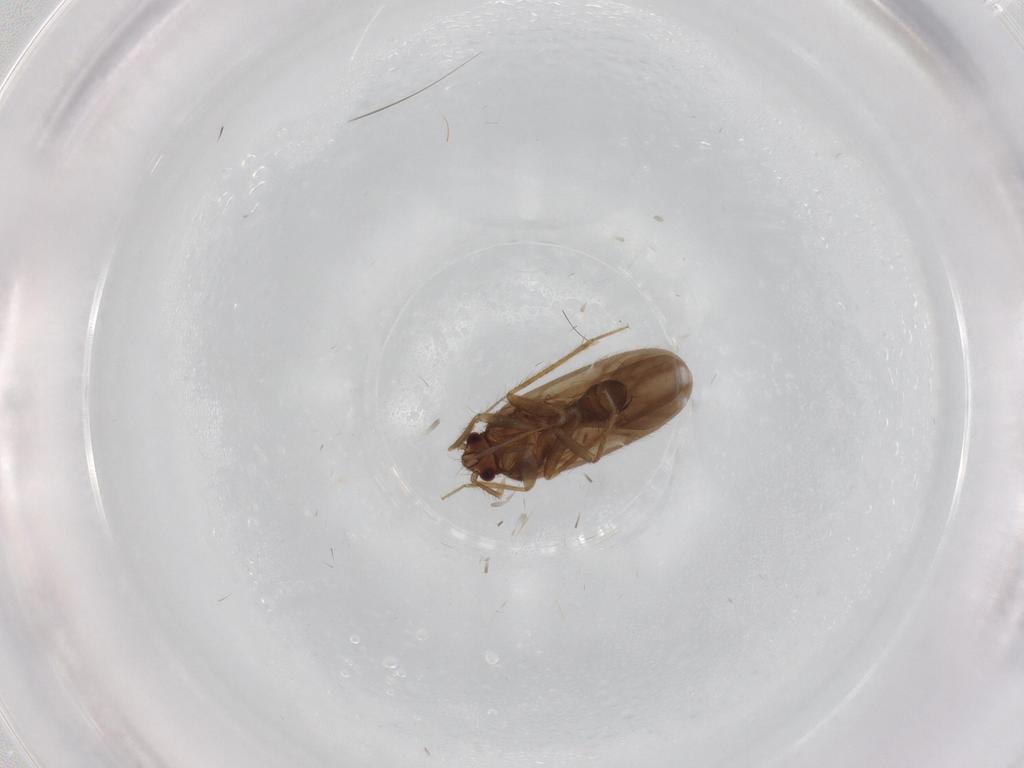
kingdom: Animalia
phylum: Arthropoda
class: Insecta
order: Hemiptera
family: Ceratocombidae
